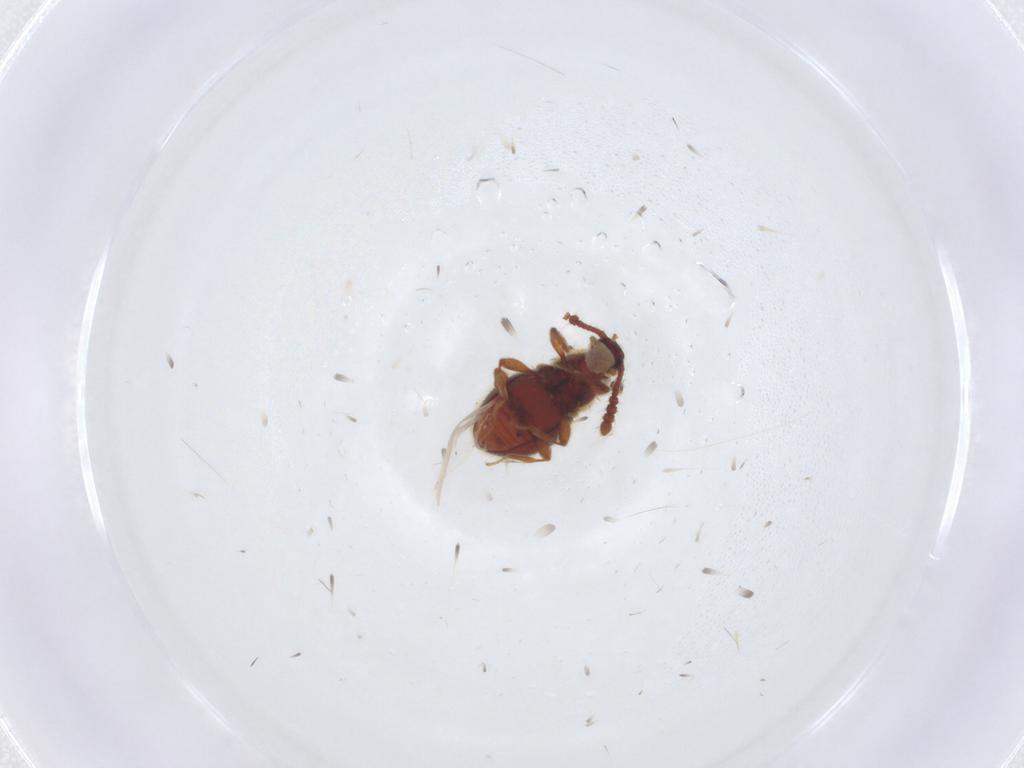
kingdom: Animalia
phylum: Arthropoda
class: Insecta
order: Coleoptera
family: Staphylinidae
